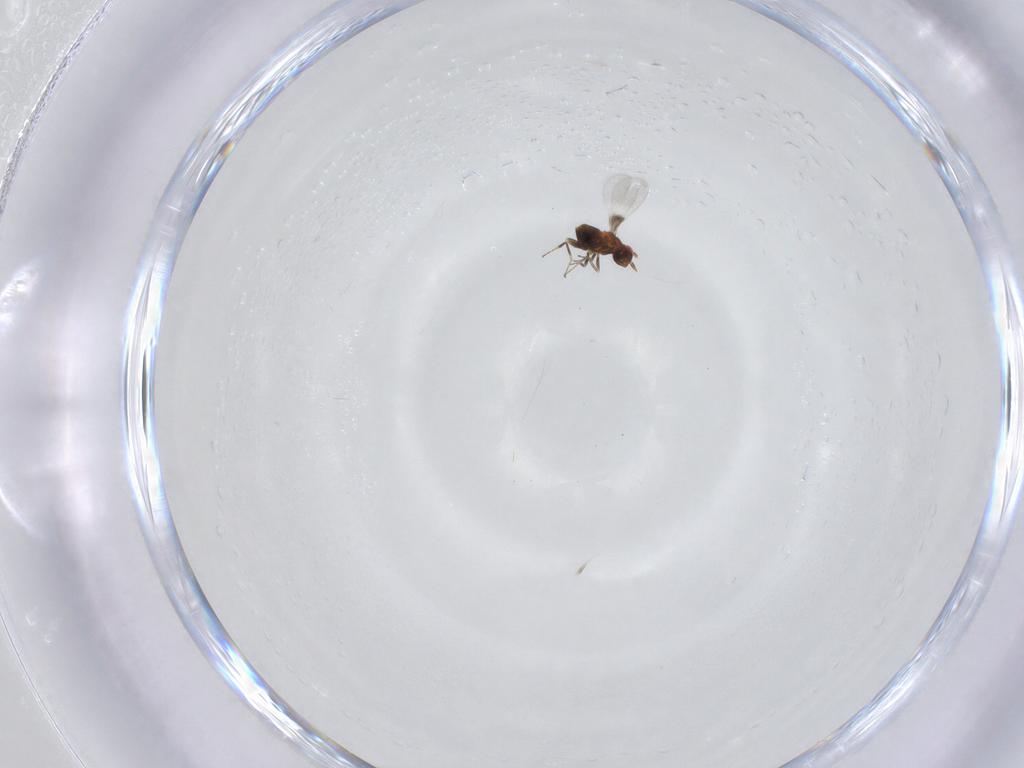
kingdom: Animalia
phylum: Arthropoda
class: Insecta
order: Hymenoptera
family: Trichogrammatidae
